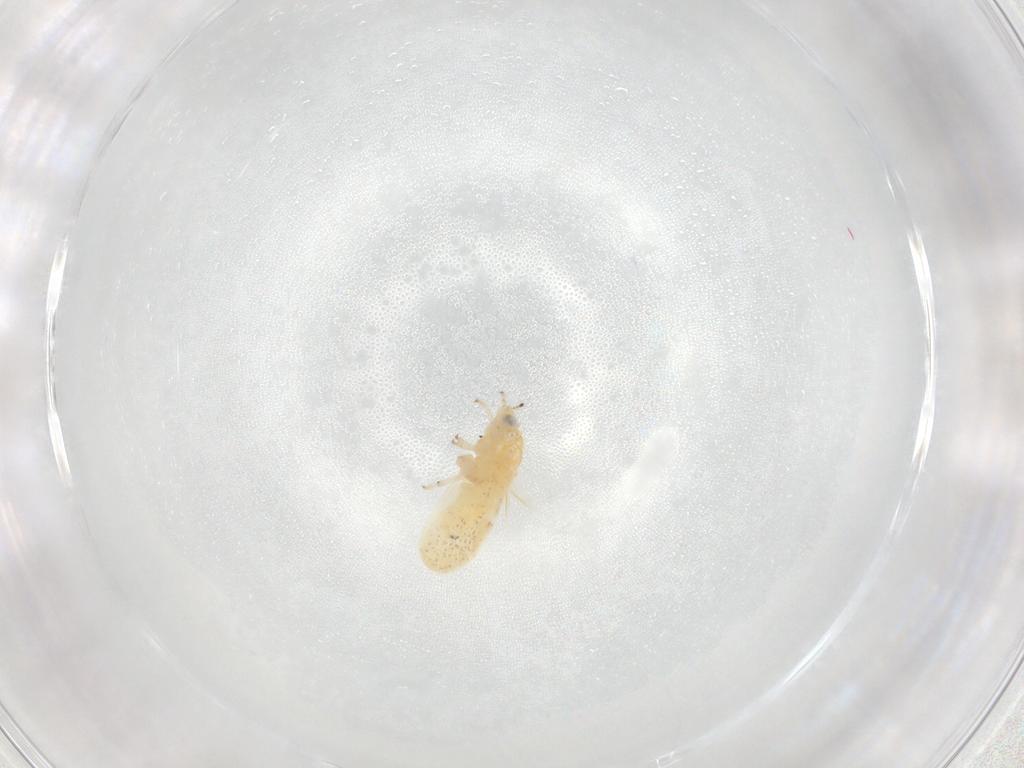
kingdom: Animalia
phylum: Arthropoda
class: Insecta
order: Hemiptera
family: Psylloidea_incertae_sedis
